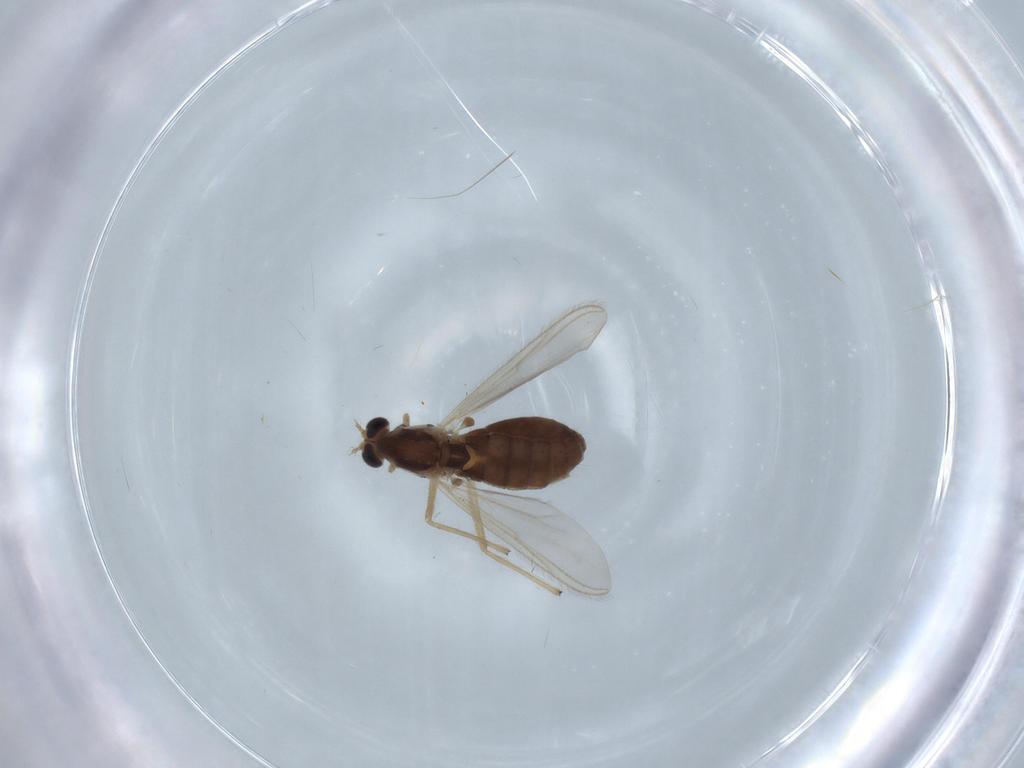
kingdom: Animalia
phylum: Arthropoda
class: Insecta
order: Diptera
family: Chironomidae
